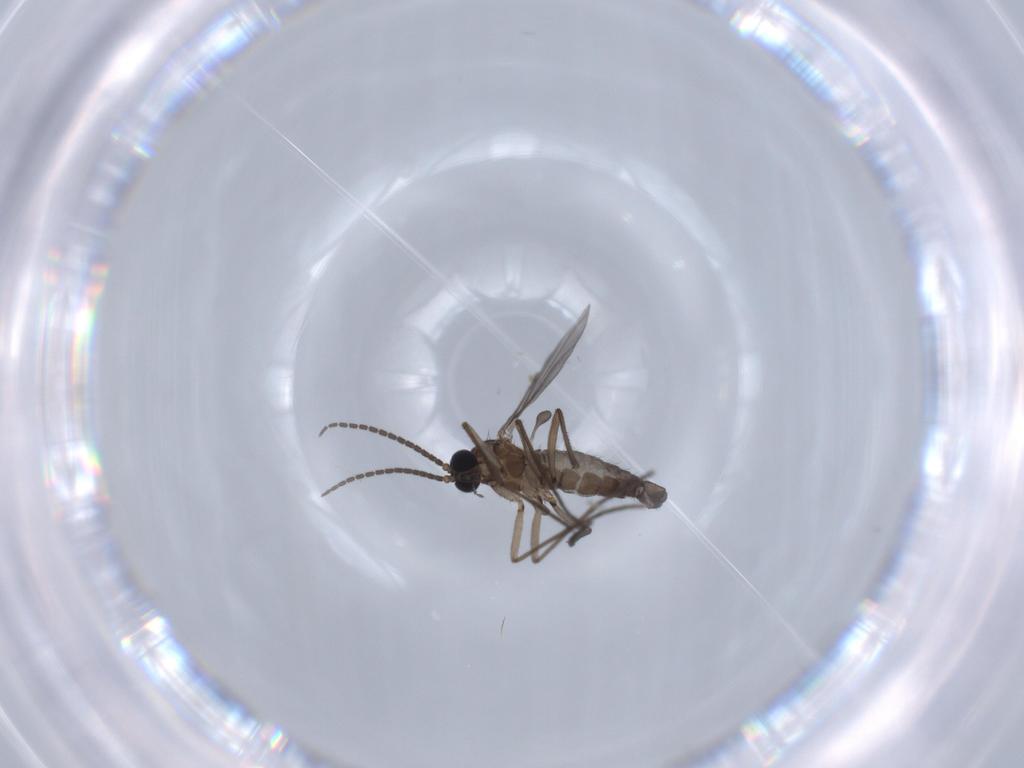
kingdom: Animalia
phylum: Arthropoda
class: Insecta
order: Diptera
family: Sciaridae
